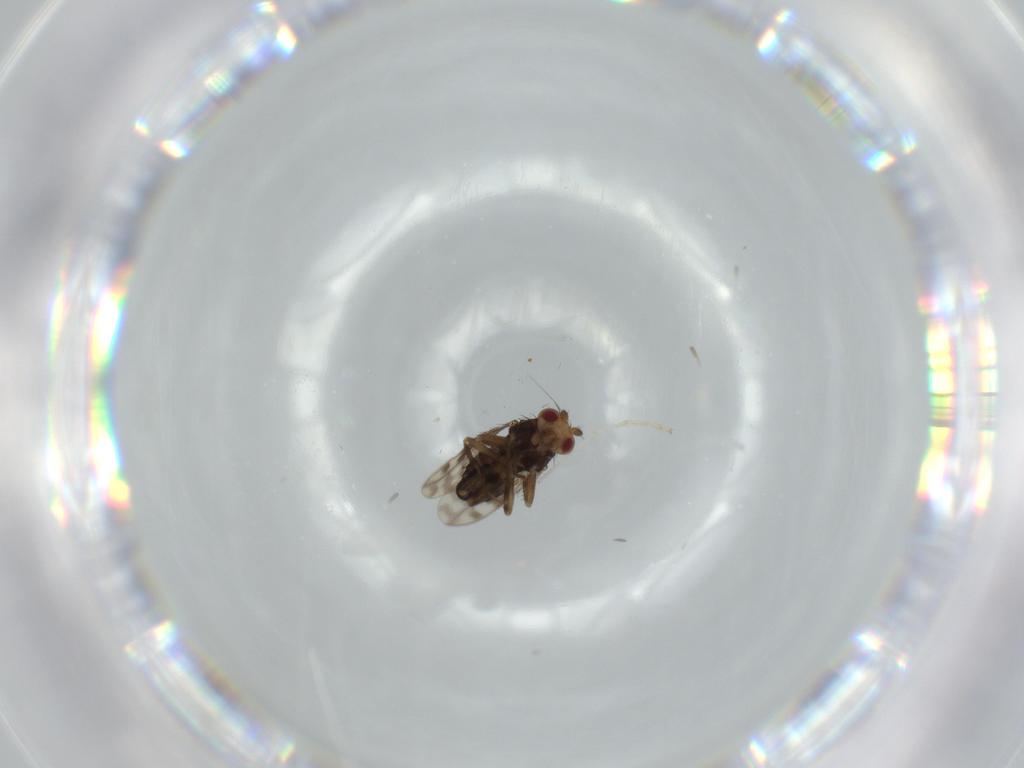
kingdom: Animalia
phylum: Arthropoda
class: Insecta
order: Diptera
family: Sphaeroceridae
